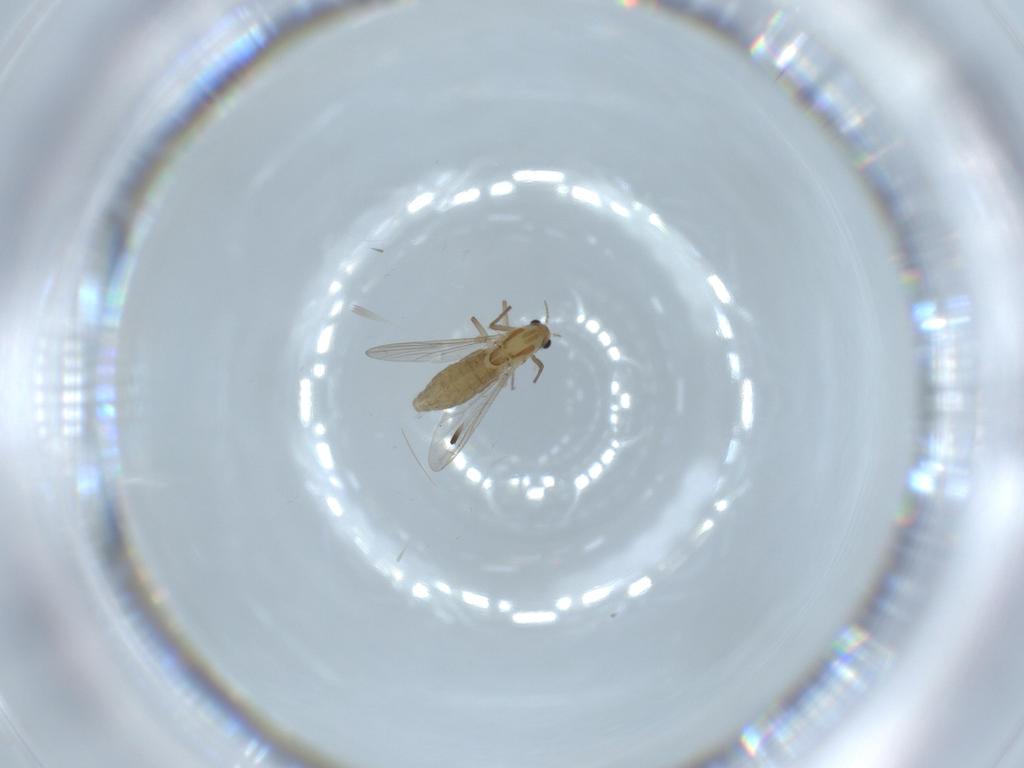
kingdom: Animalia
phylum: Arthropoda
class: Insecta
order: Diptera
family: Chironomidae
